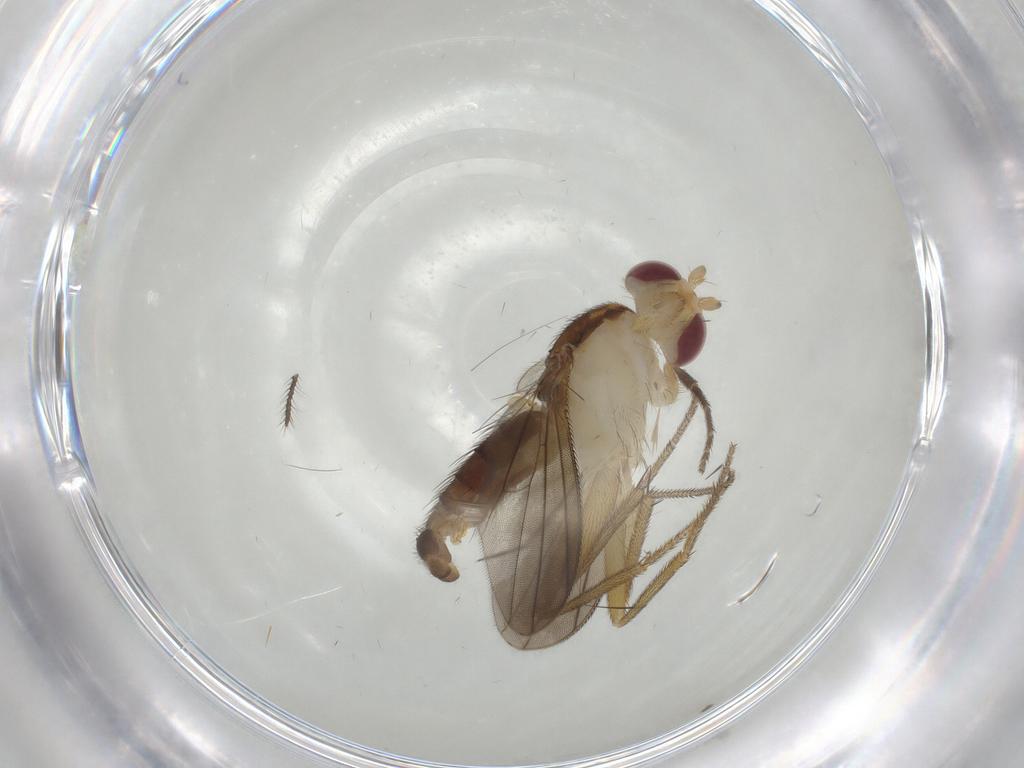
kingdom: Animalia
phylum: Arthropoda
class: Insecta
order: Diptera
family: Clusiidae
